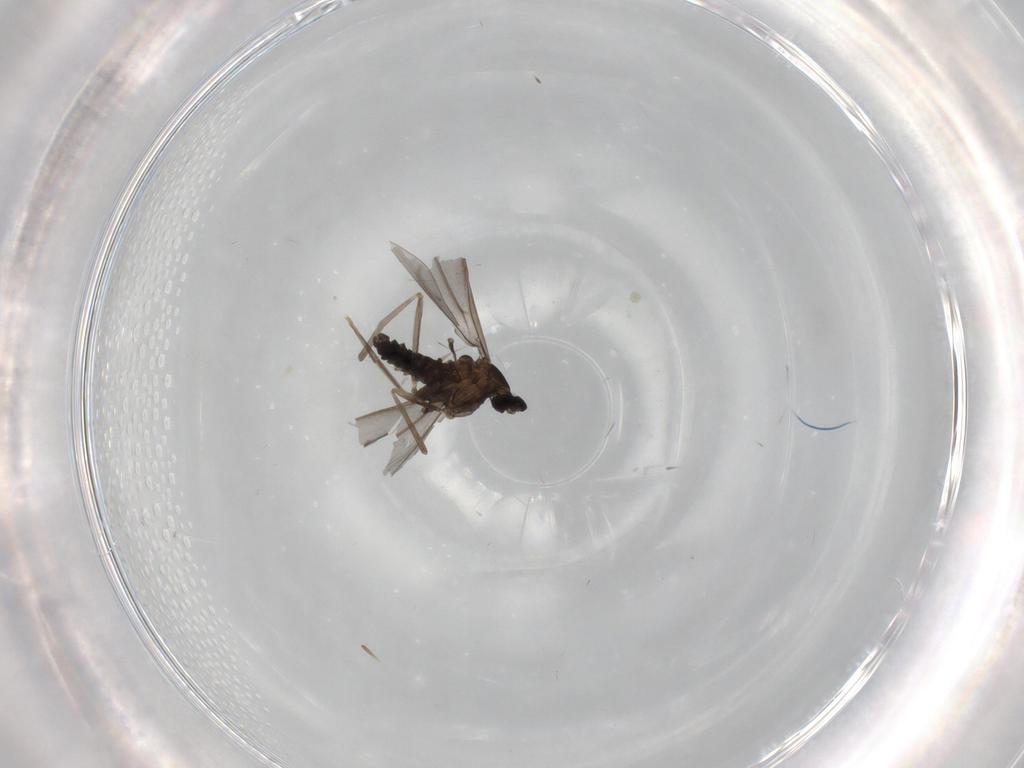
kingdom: Animalia
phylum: Arthropoda
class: Insecta
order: Diptera
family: Cecidomyiidae
